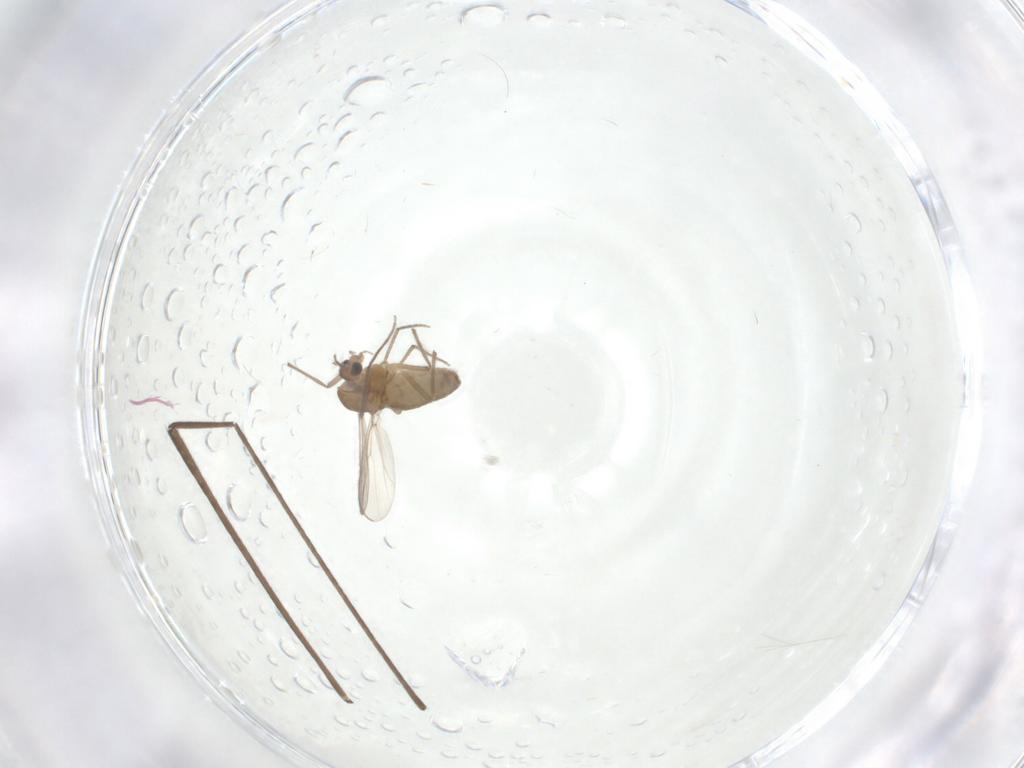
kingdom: Animalia
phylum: Arthropoda
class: Insecta
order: Diptera
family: Chironomidae
